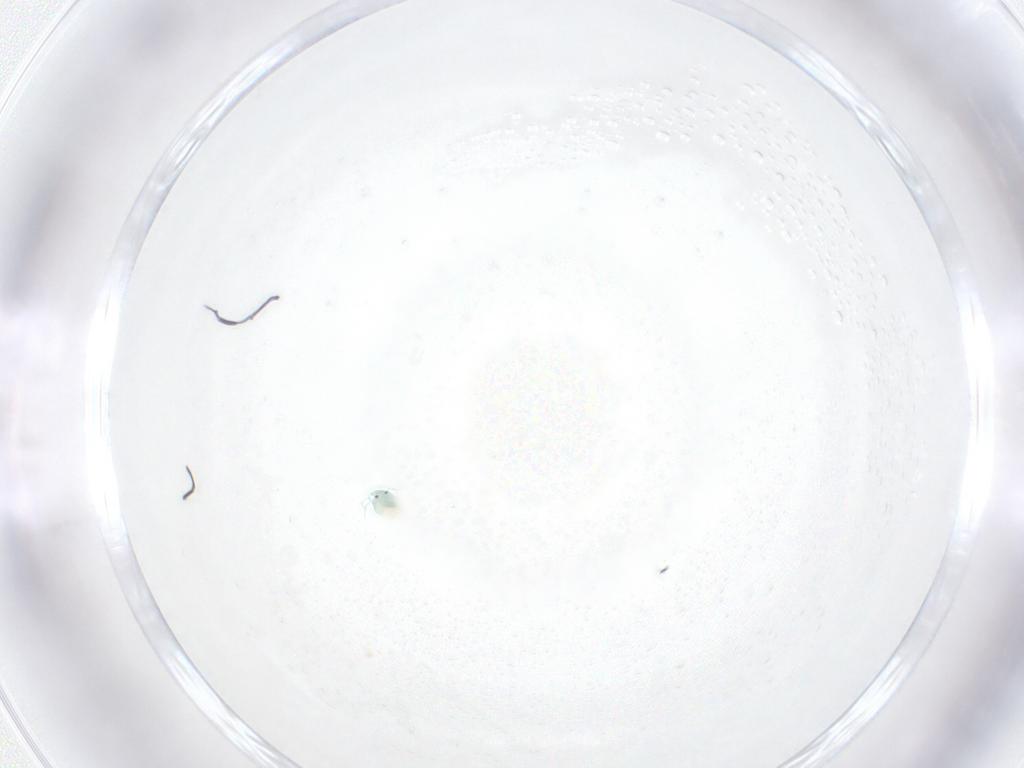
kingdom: Animalia
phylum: Arthropoda
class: Arachnida
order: Trombidiformes
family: Arrenuridae
